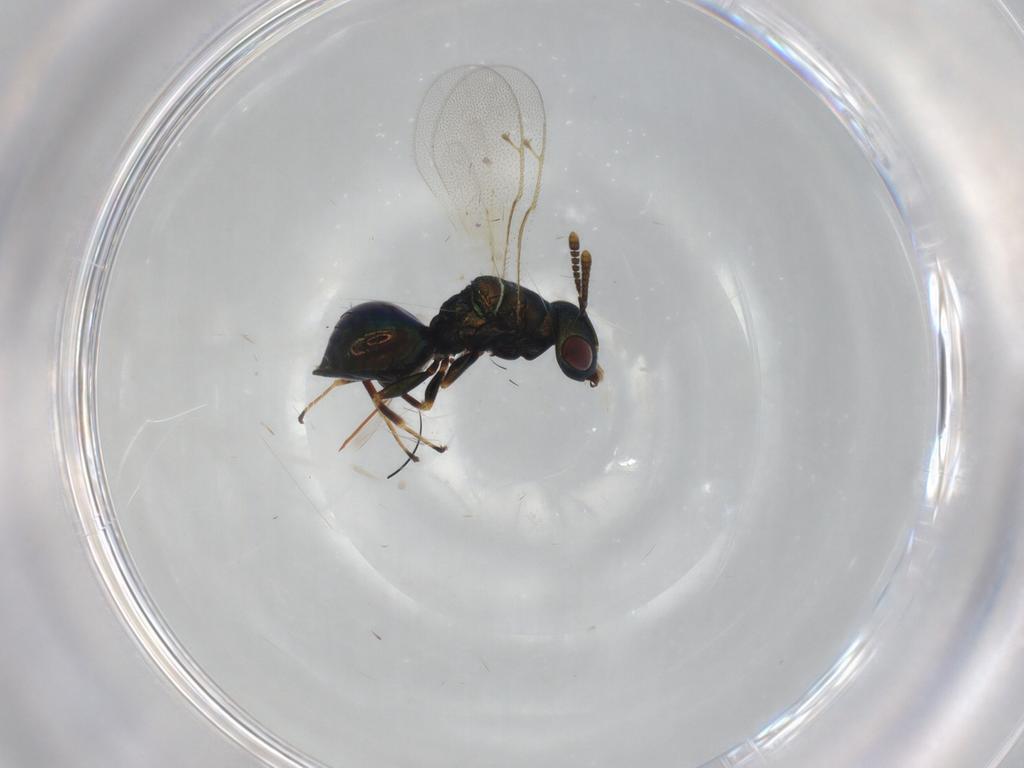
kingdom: Animalia
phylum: Arthropoda
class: Insecta
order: Hymenoptera
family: Pteromalidae
